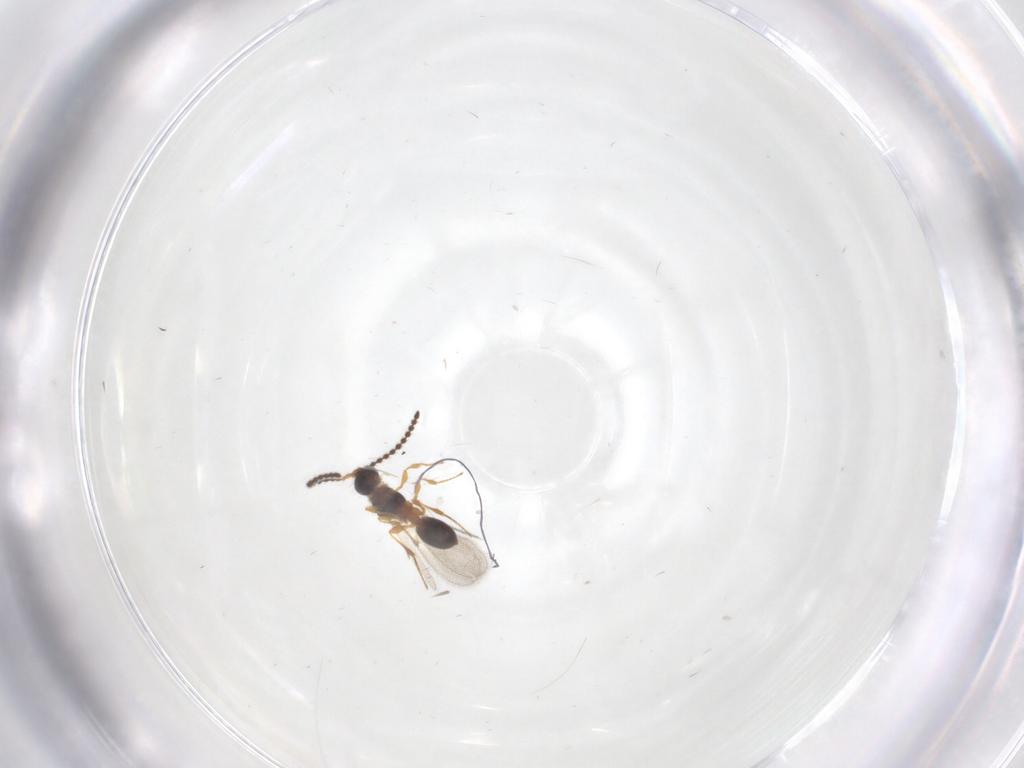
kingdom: Animalia
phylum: Arthropoda
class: Insecta
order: Hymenoptera
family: Diapriidae
